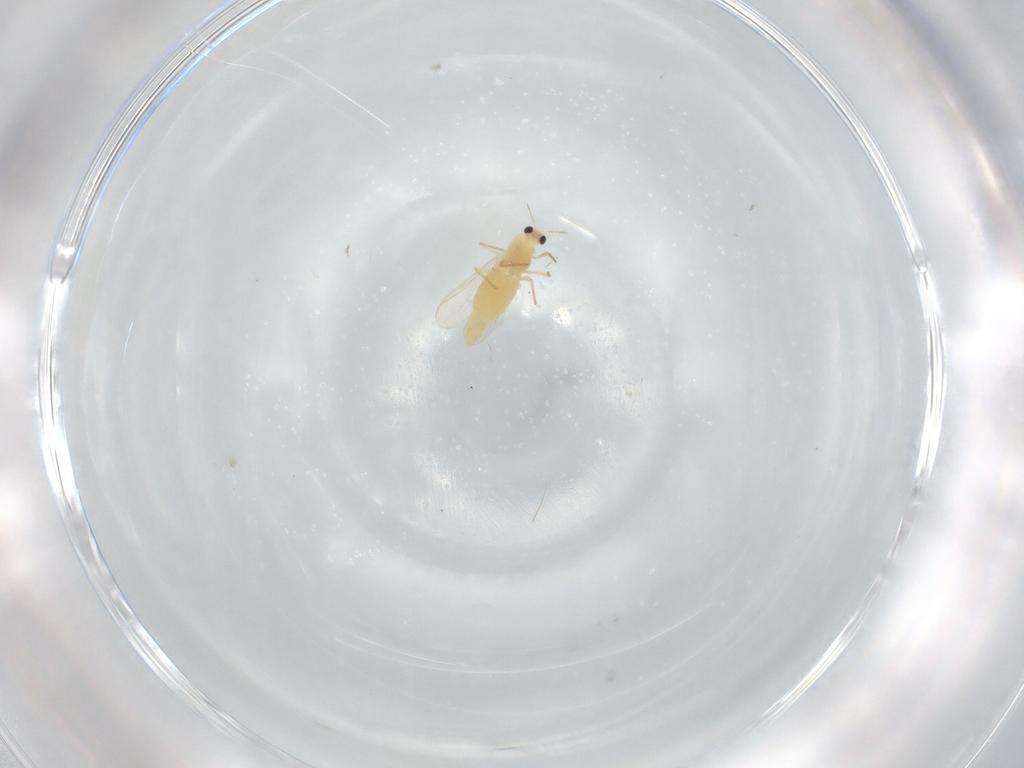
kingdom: Animalia
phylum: Arthropoda
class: Insecta
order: Diptera
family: Chironomidae
